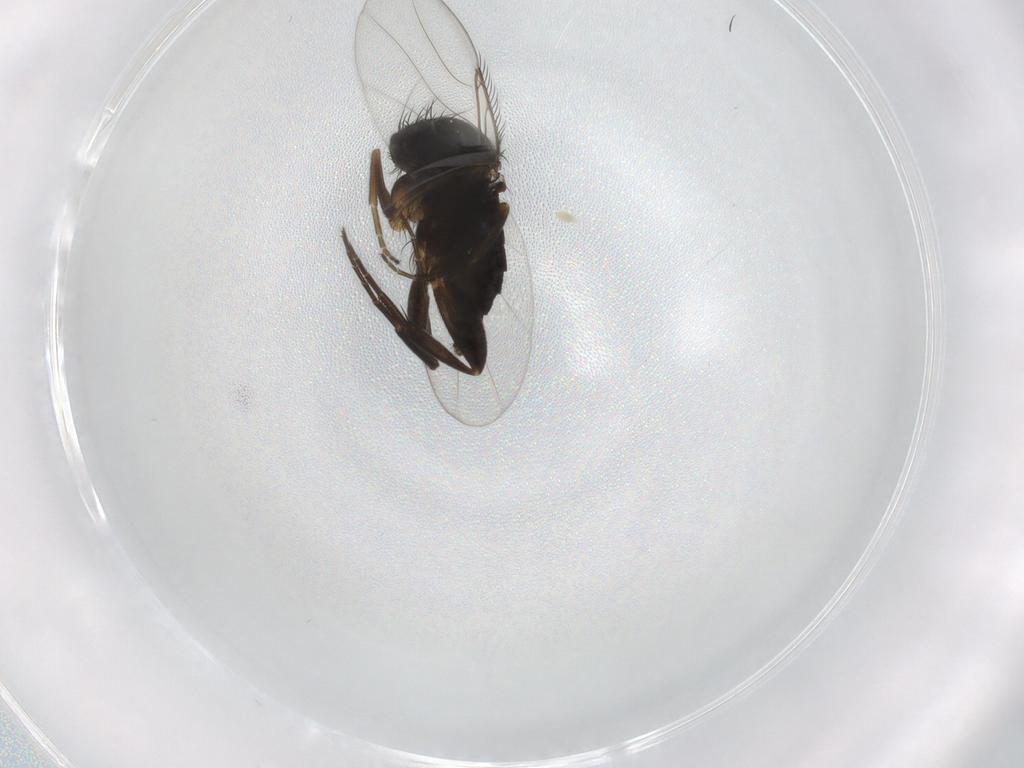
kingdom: Animalia
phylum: Arthropoda
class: Insecta
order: Diptera
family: Phoridae
